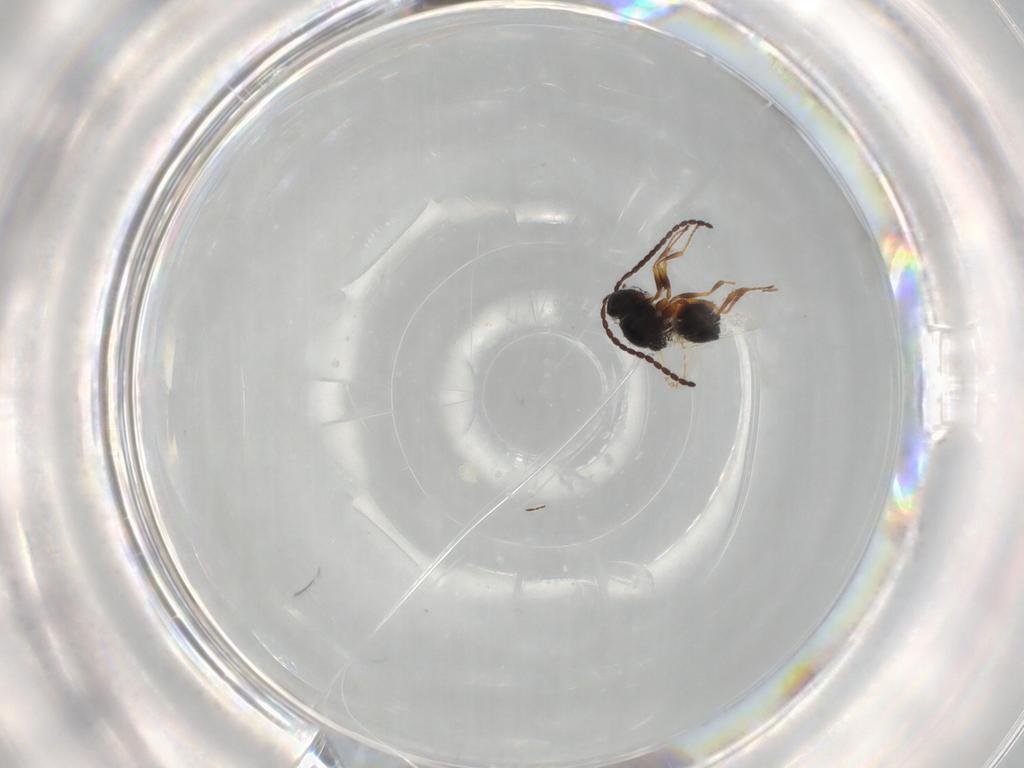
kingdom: Animalia
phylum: Arthropoda
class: Insecta
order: Hymenoptera
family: Figitidae
